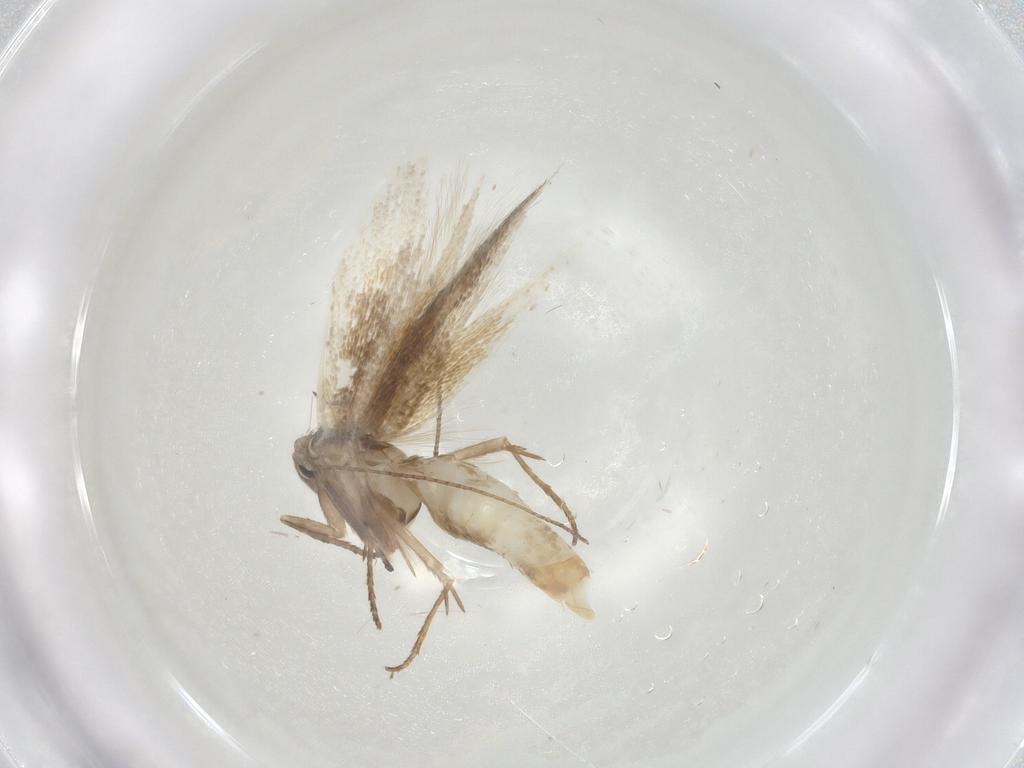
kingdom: Animalia
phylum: Arthropoda
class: Insecta
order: Lepidoptera
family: Bucculatricidae
